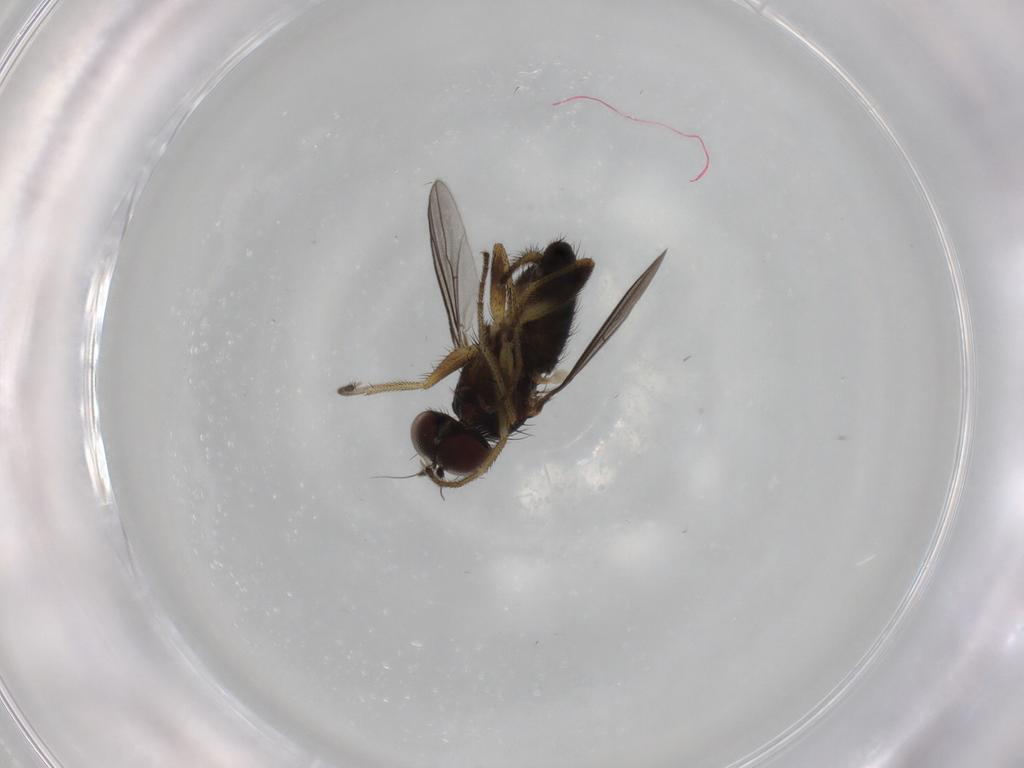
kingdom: Animalia
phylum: Arthropoda
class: Insecta
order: Diptera
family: Dolichopodidae
